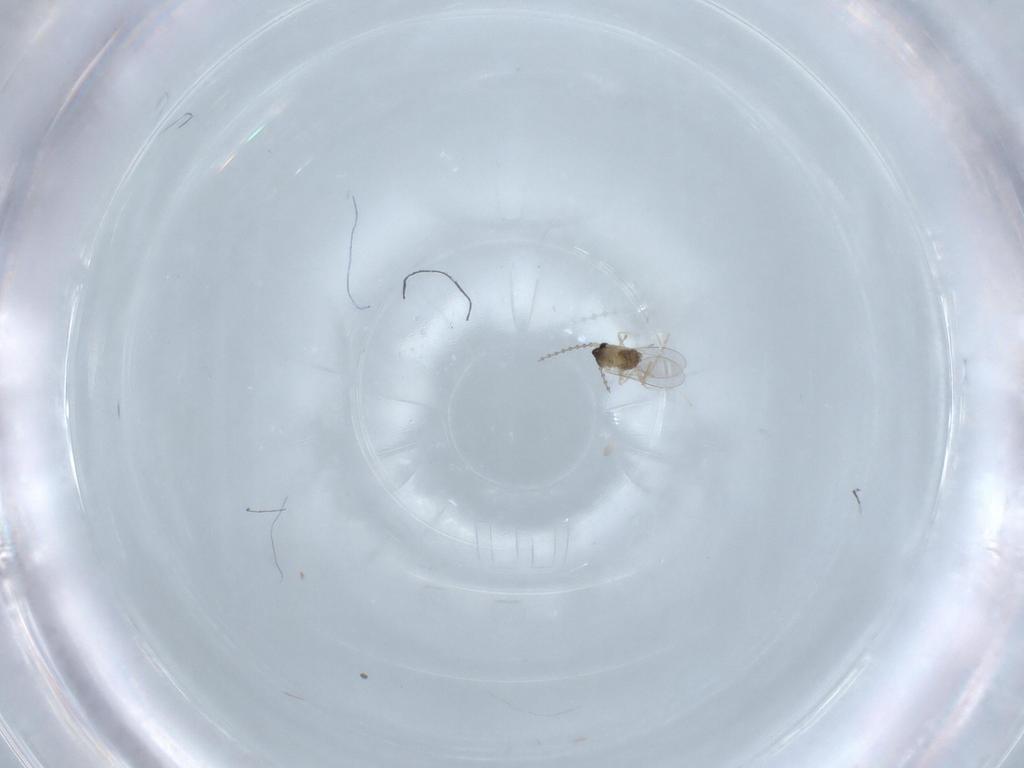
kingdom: Animalia
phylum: Arthropoda
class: Insecta
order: Diptera
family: Cecidomyiidae
